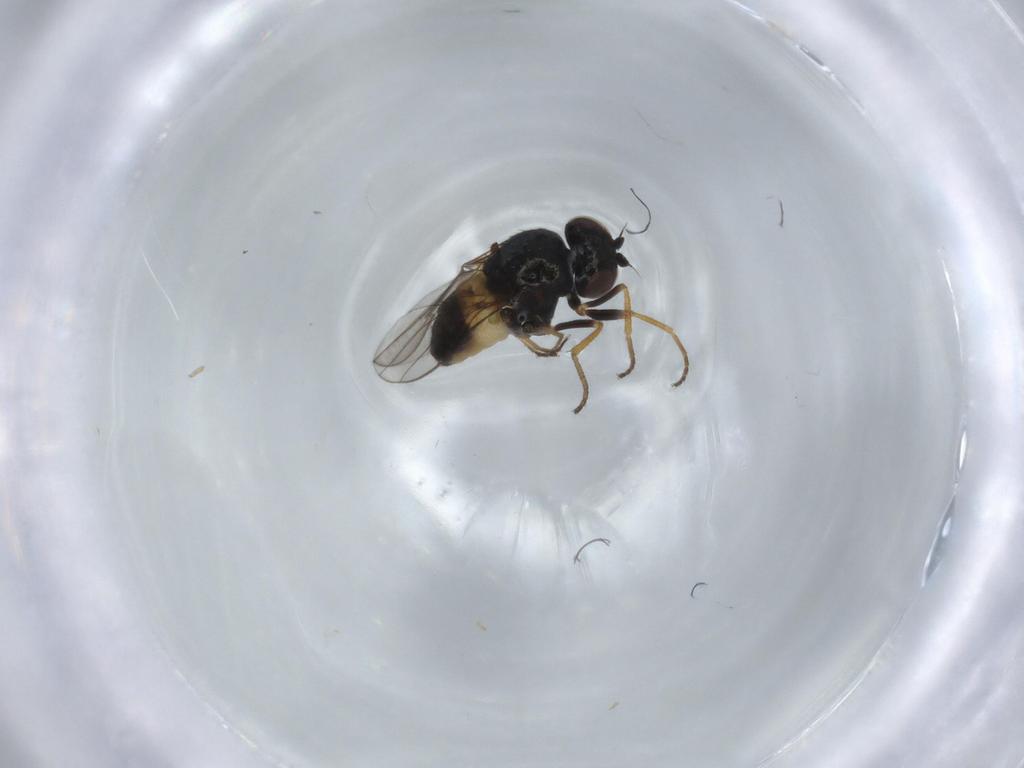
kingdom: Animalia
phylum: Arthropoda
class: Insecta
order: Diptera
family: Chloropidae
